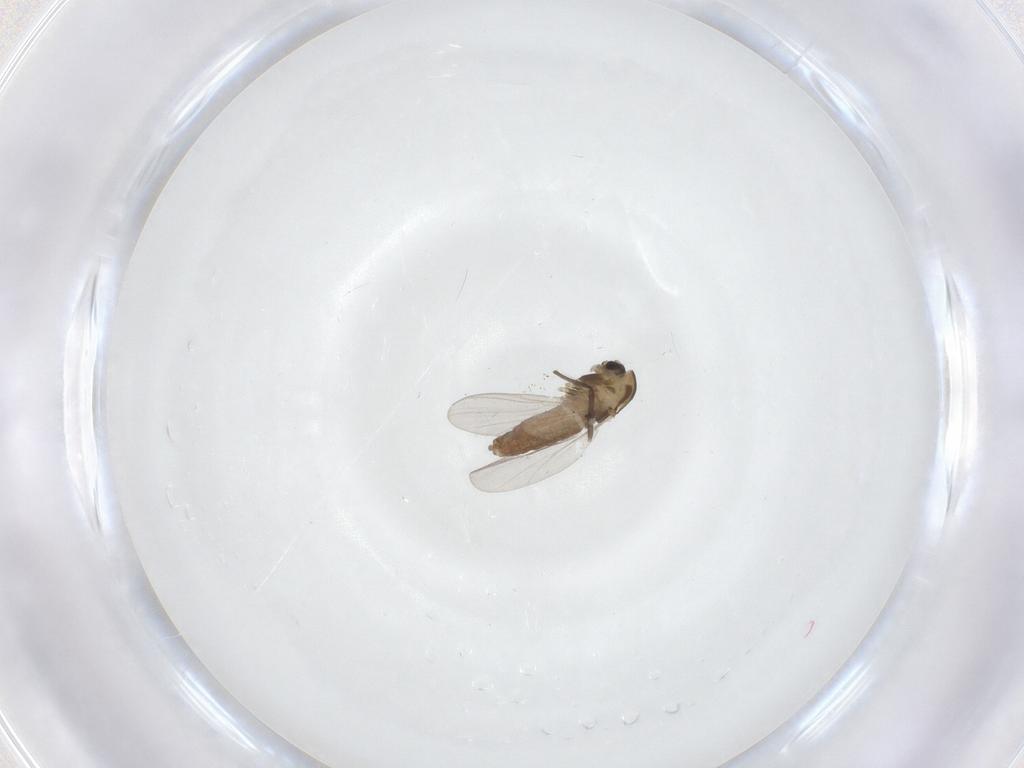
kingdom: Animalia
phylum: Arthropoda
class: Insecta
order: Diptera
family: Chironomidae
